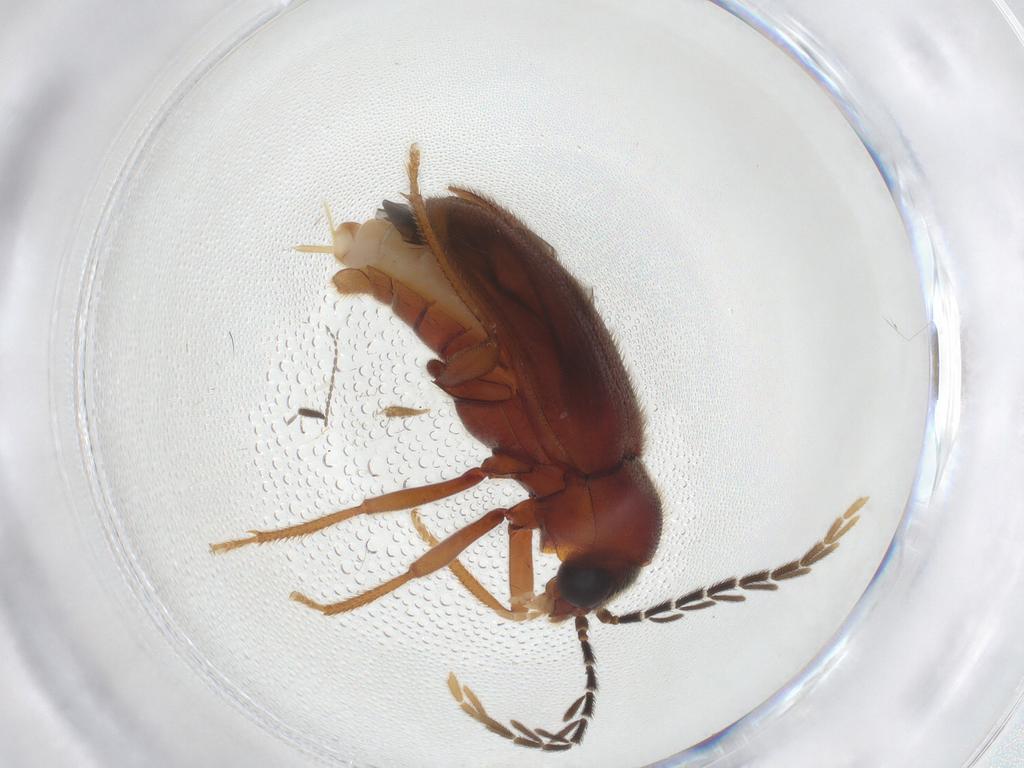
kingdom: Animalia
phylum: Arthropoda
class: Insecta
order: Coleoptera
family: Ptilodactylidae
